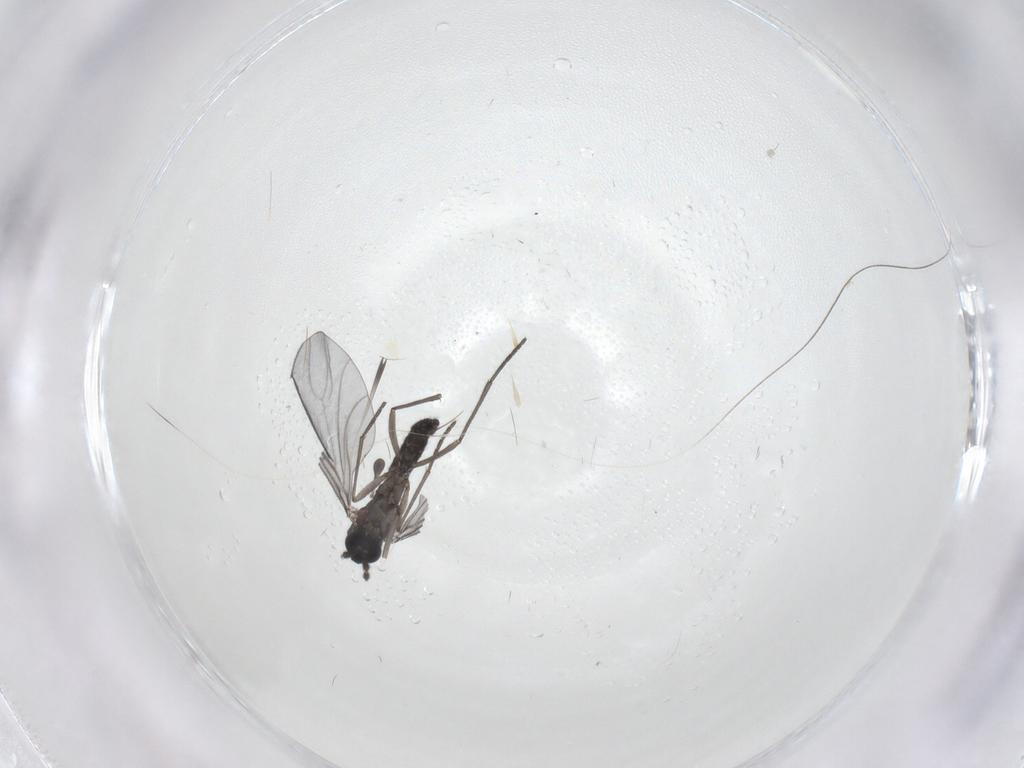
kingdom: Animalia
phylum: Arthropoda
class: Insecta
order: Diptera
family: Sciaridae
